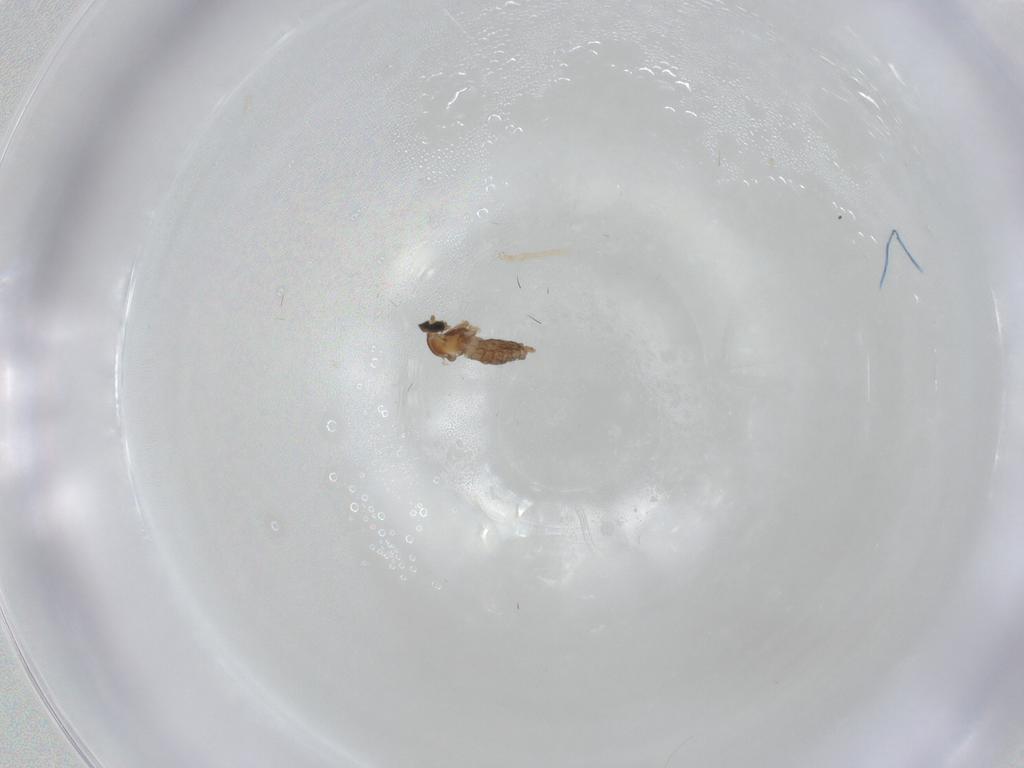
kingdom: Animalia
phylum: Arthropoda
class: Insecta
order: Diptera
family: Cecidomyiidae
